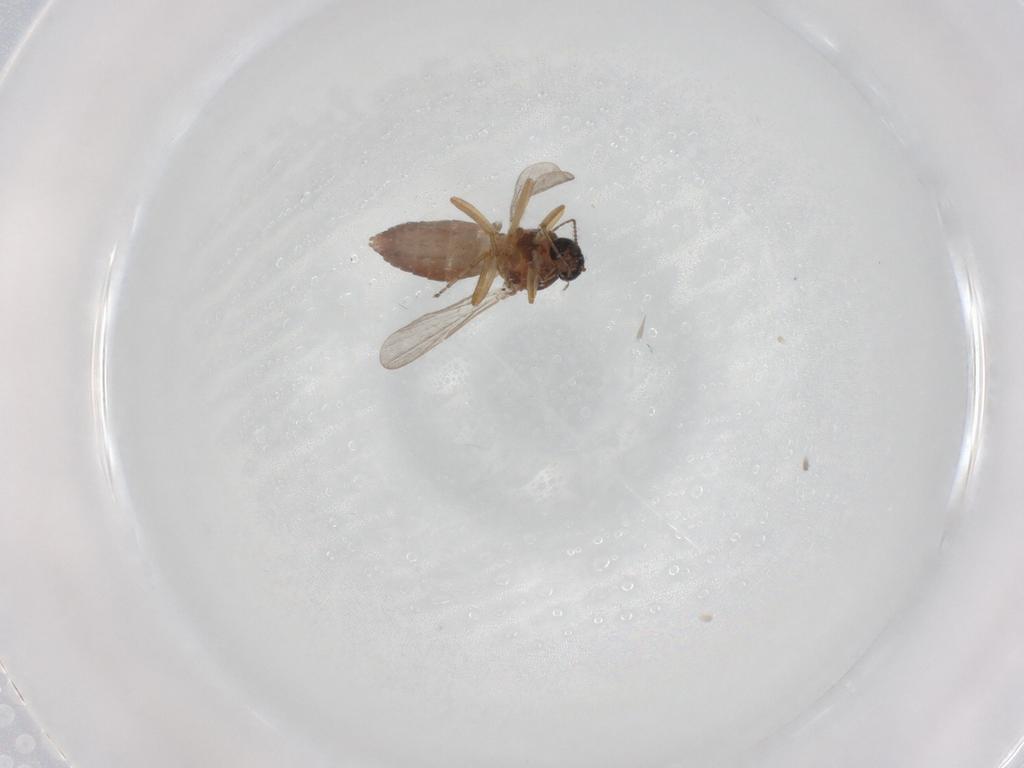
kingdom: Animalia
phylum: Arthropoda
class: Insecta
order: Diptera
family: Ceratopogonidae
